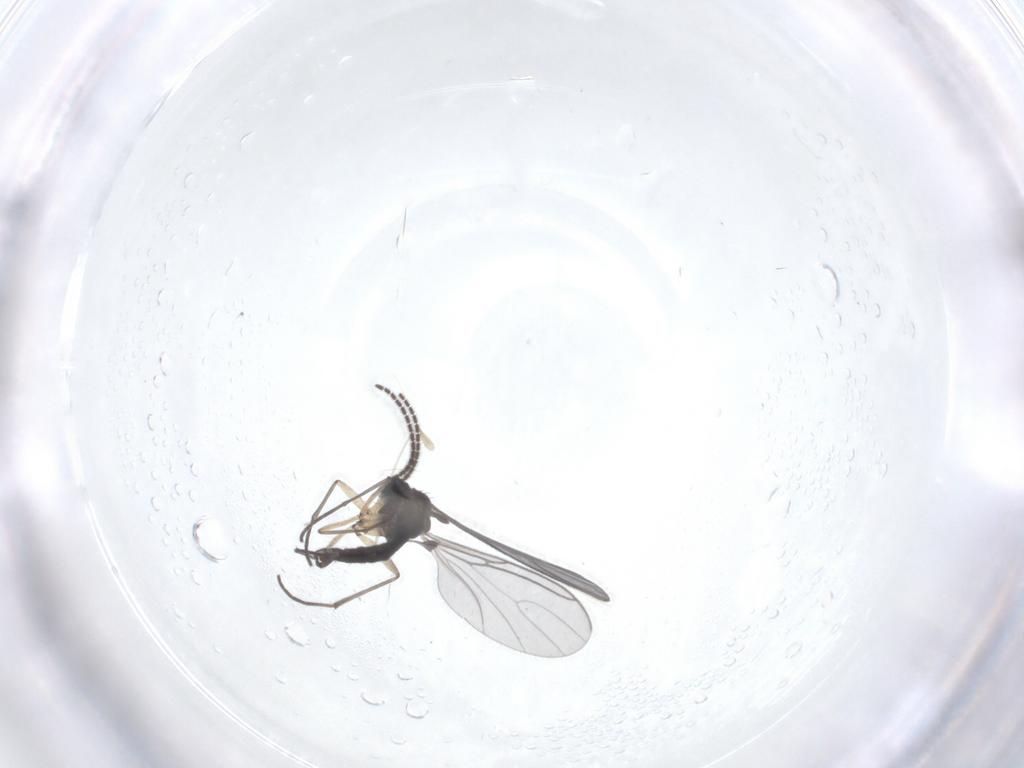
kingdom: Animalia
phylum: Arthropoda
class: Insecta
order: Diptera
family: Sciaridae
